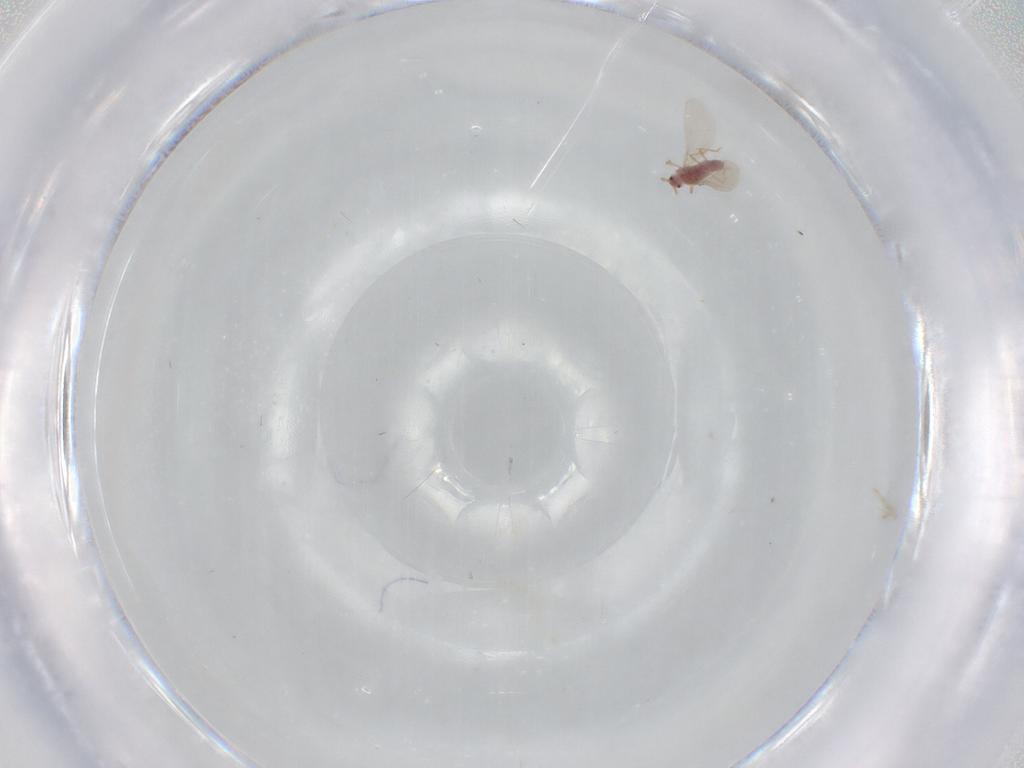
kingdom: Animalia
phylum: Arthropoda
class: Insecta
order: Hemiptera
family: Pseudococcidae
